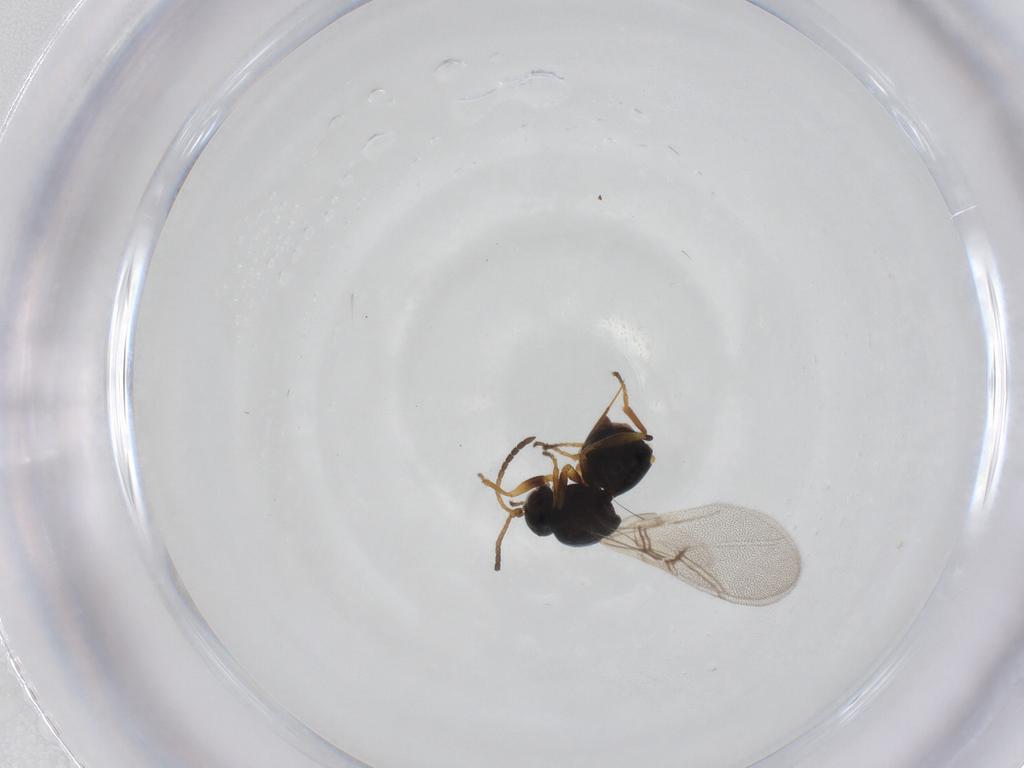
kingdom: Animalia
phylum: Arthropoda
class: Insecta
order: Hymenoptera
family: Cynipidae
